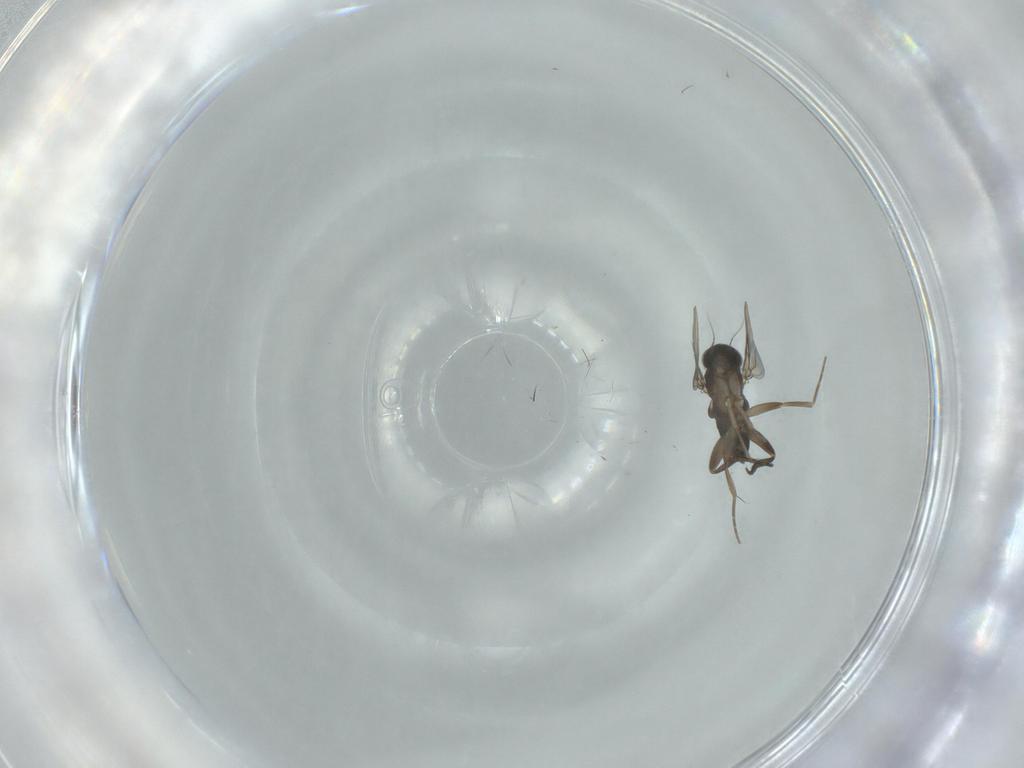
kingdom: Animalia
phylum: Arthropoda
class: Insecta
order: Diptera
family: Phoridae
